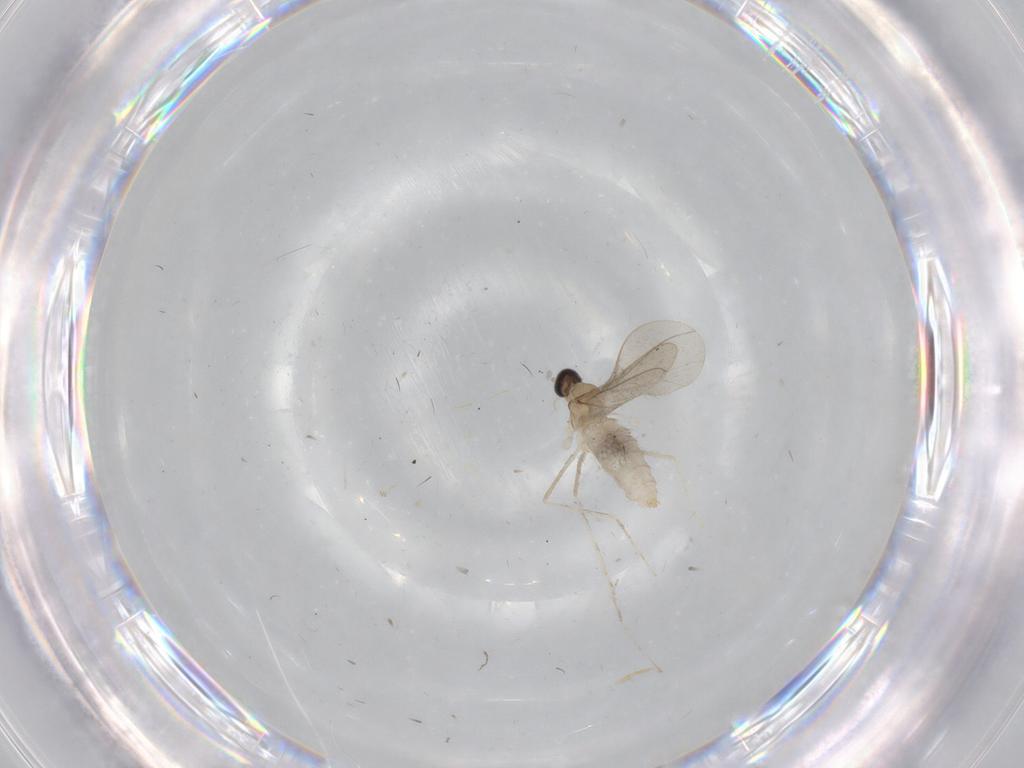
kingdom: Animalia
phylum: Arthropoda
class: Insecta
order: Diptera
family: Cecidomyiidae
